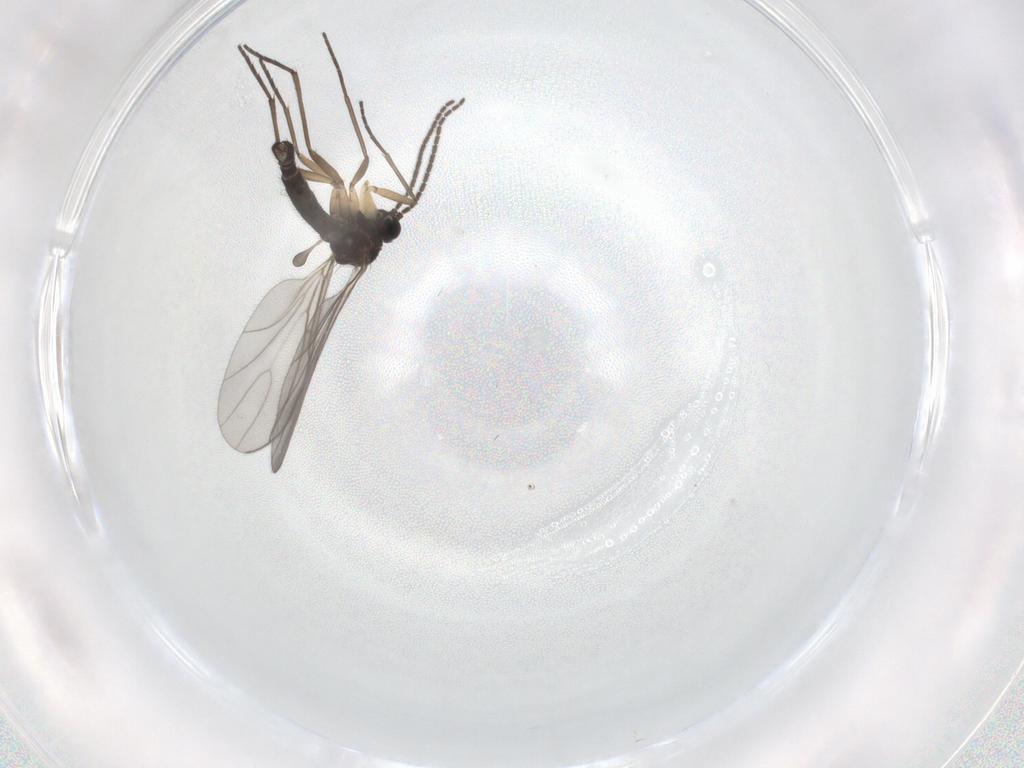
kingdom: Animalia
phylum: Arthropoda
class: Insecta
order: Diptera
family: Sciaridae
